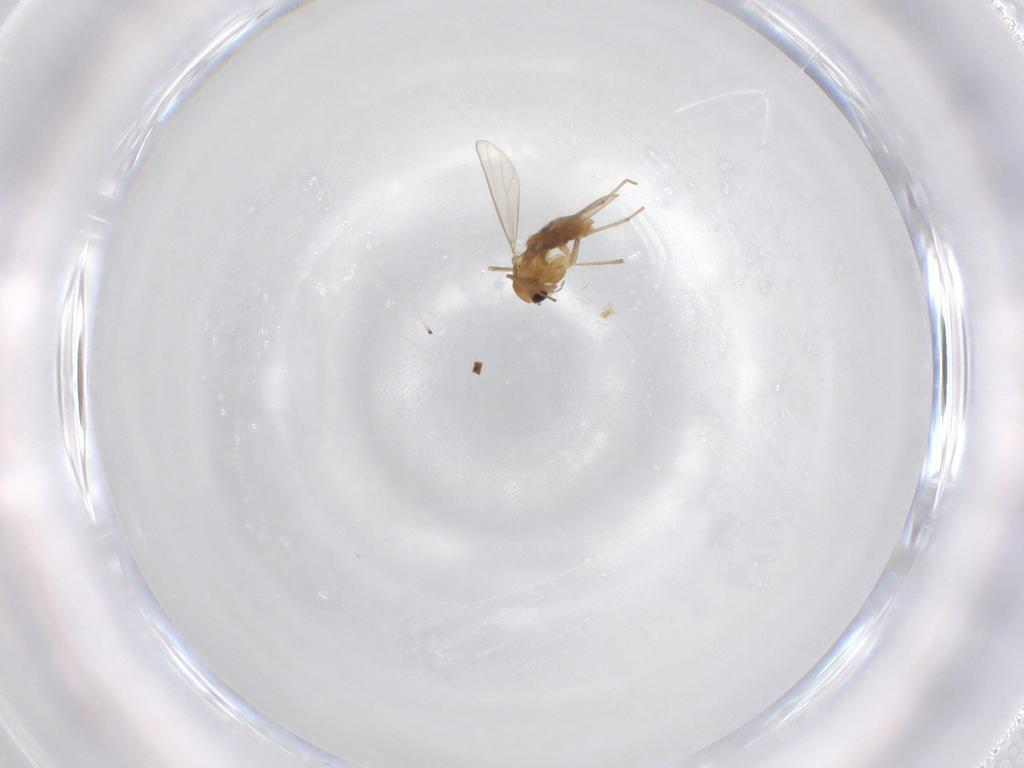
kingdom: Animalia
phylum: Arthropoda
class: Insecta
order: Diptera
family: Chironomidae
